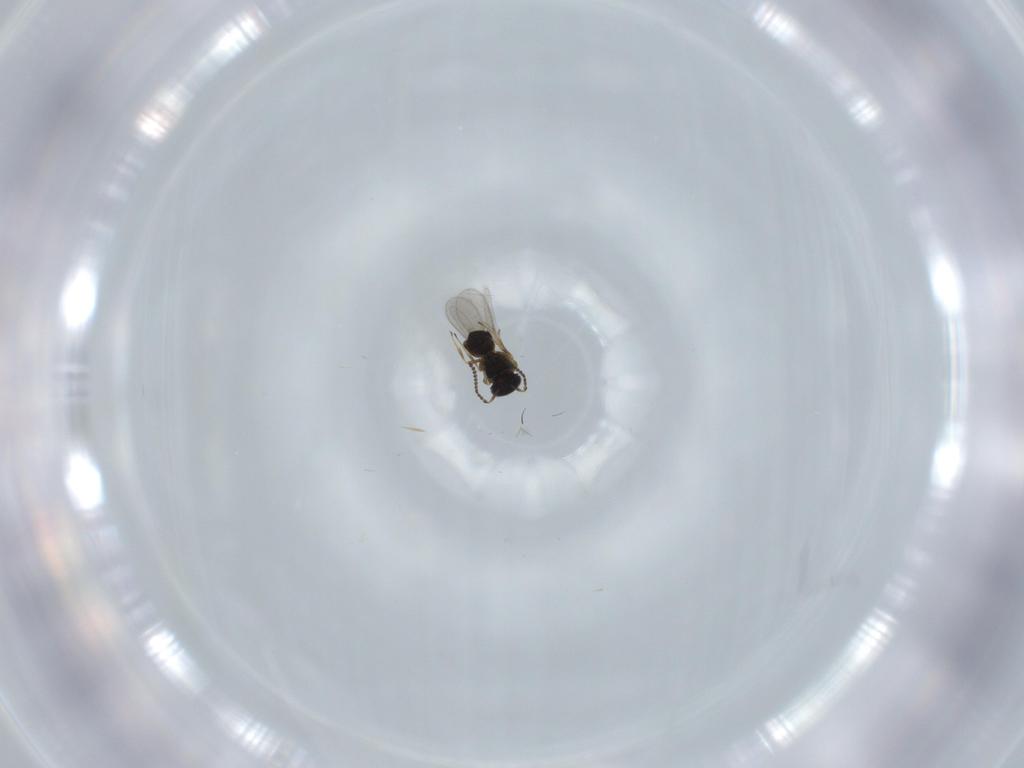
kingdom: Animalia
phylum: Arthropoda
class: Insecta
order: Hymenoptera
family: Scelionidae
